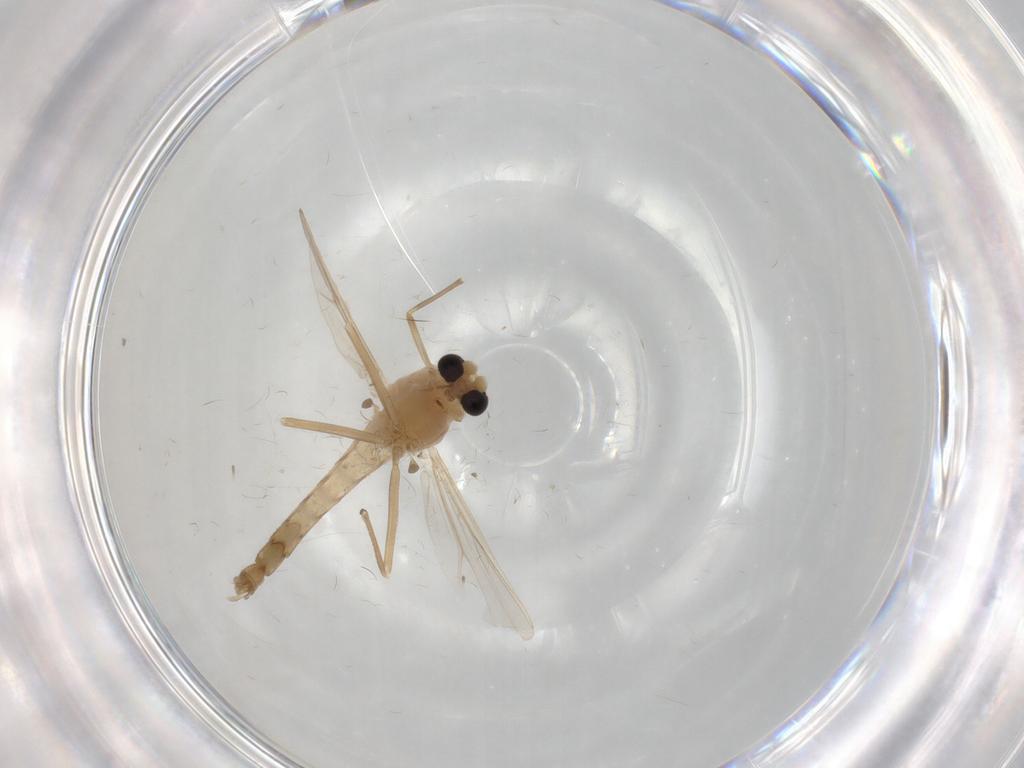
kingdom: Animalia
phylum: Arthropoda
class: Insecta
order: Diptera
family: Chironomidae
